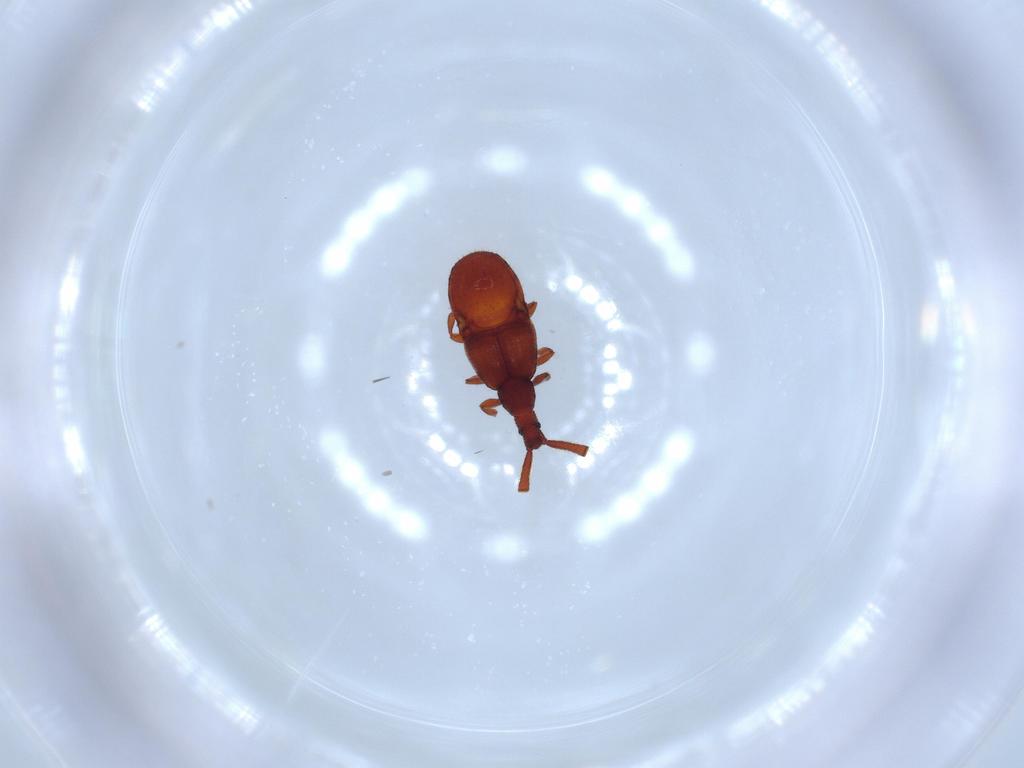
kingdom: Animalia
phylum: Arthropoda
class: Insecta
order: Coleoptera
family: Staphylinidae
